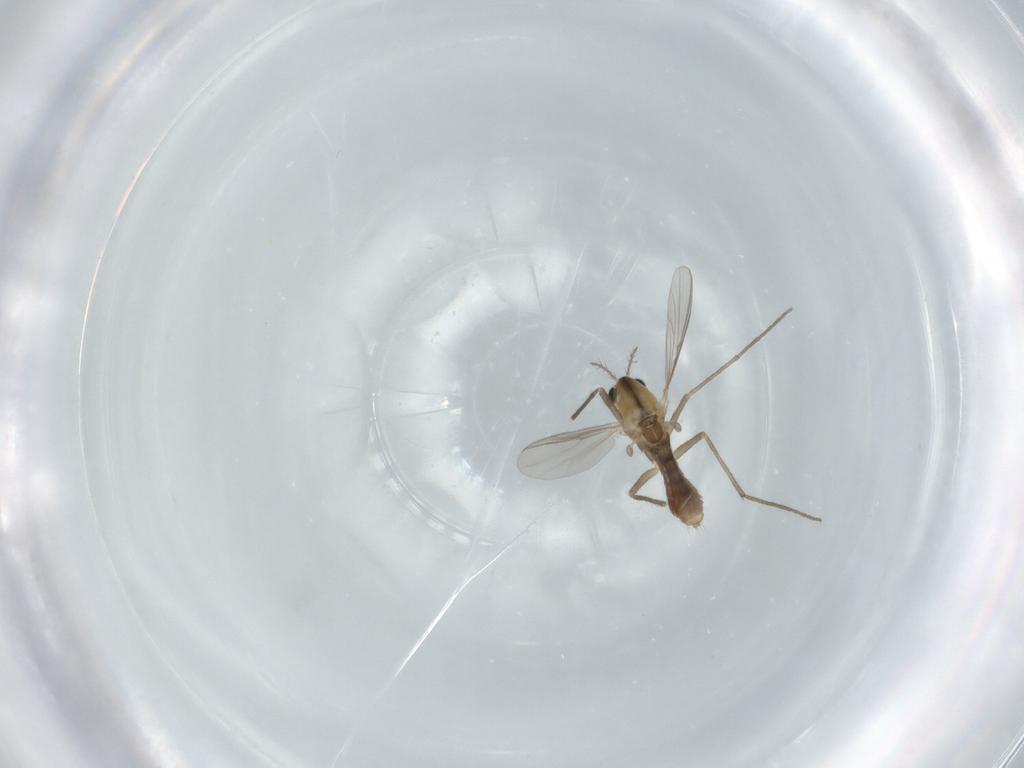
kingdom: Animalia
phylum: Arthropoda
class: Insecta
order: Diptera
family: Chironomidae
